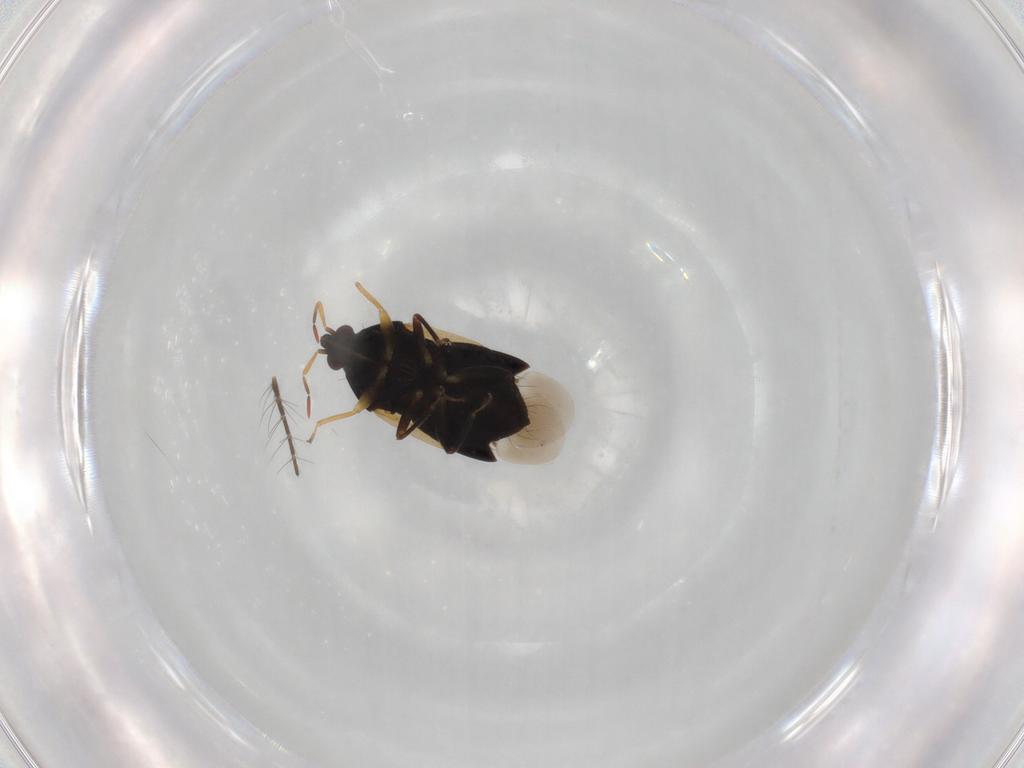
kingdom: Animalia
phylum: Arthropoda
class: Insecta
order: Hemiptera
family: Anthocoridae
